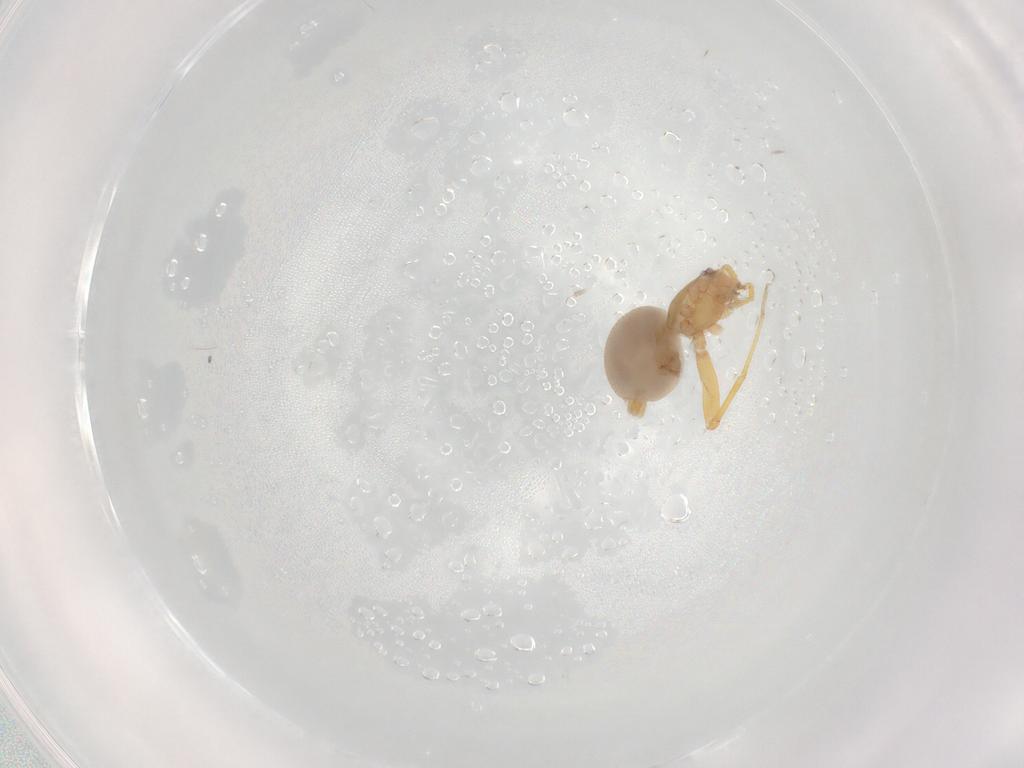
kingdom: Animalia
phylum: Arthropoda
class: Arachnida
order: Araneae
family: Oonopidae
